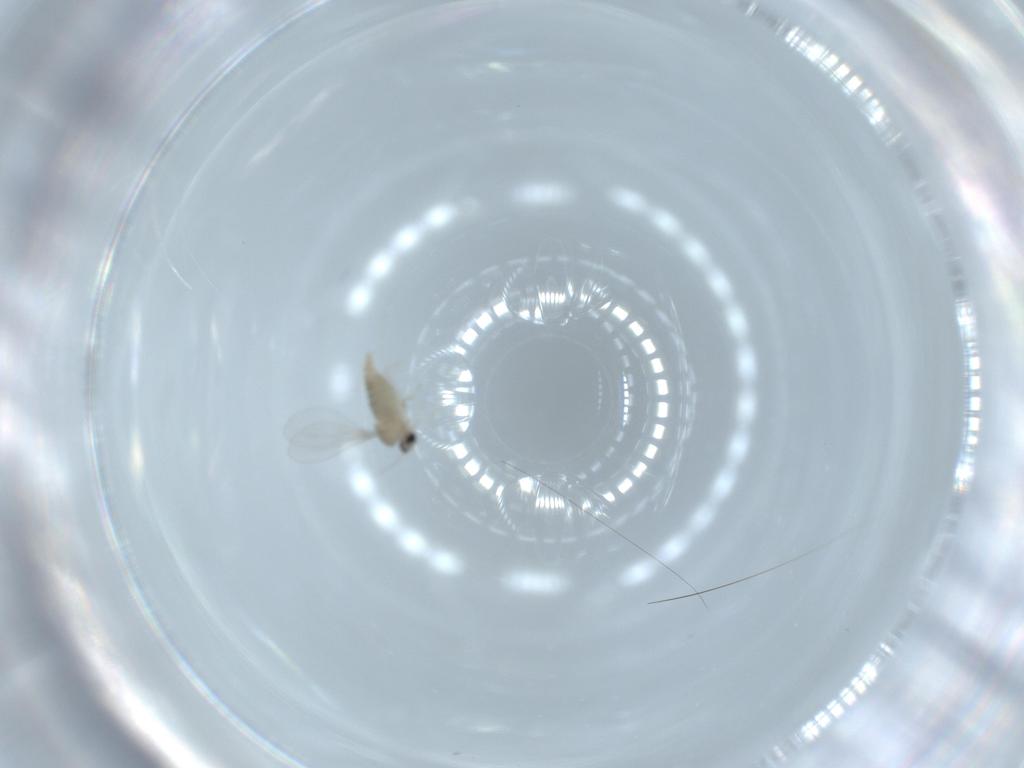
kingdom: Animalia
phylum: Arthropoda
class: Insecta
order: Diptera
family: Cecidomyiidae
